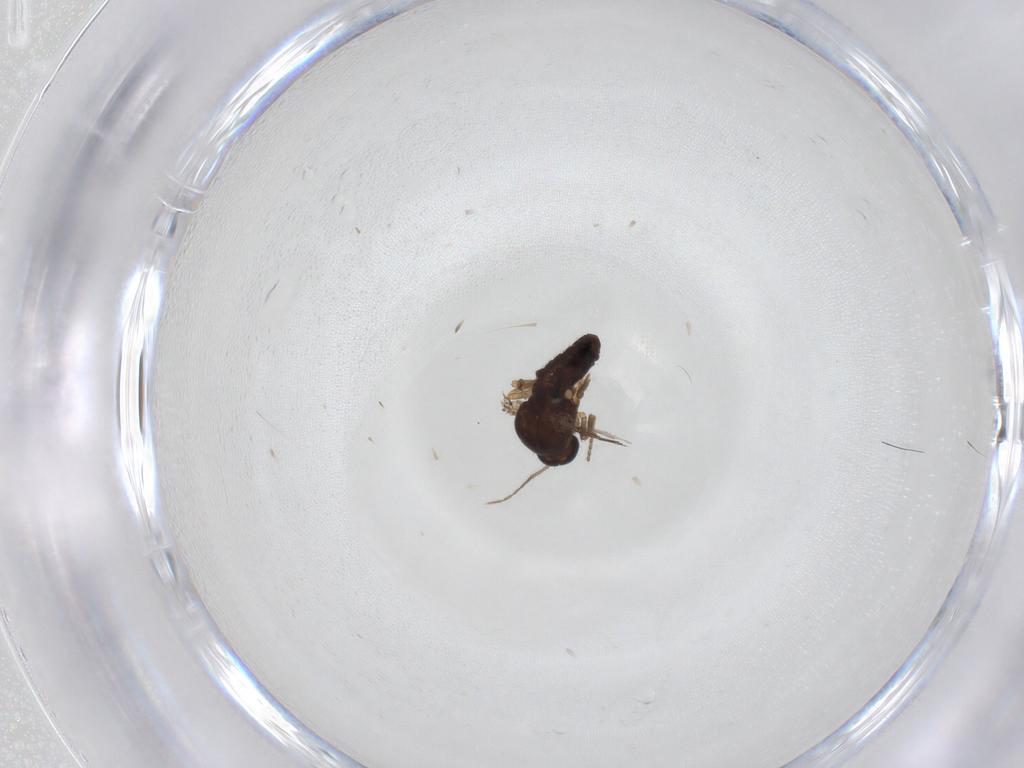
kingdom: Animalia
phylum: Arthropoda
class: Insecta
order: Diptera
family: Ceratopogonidae
